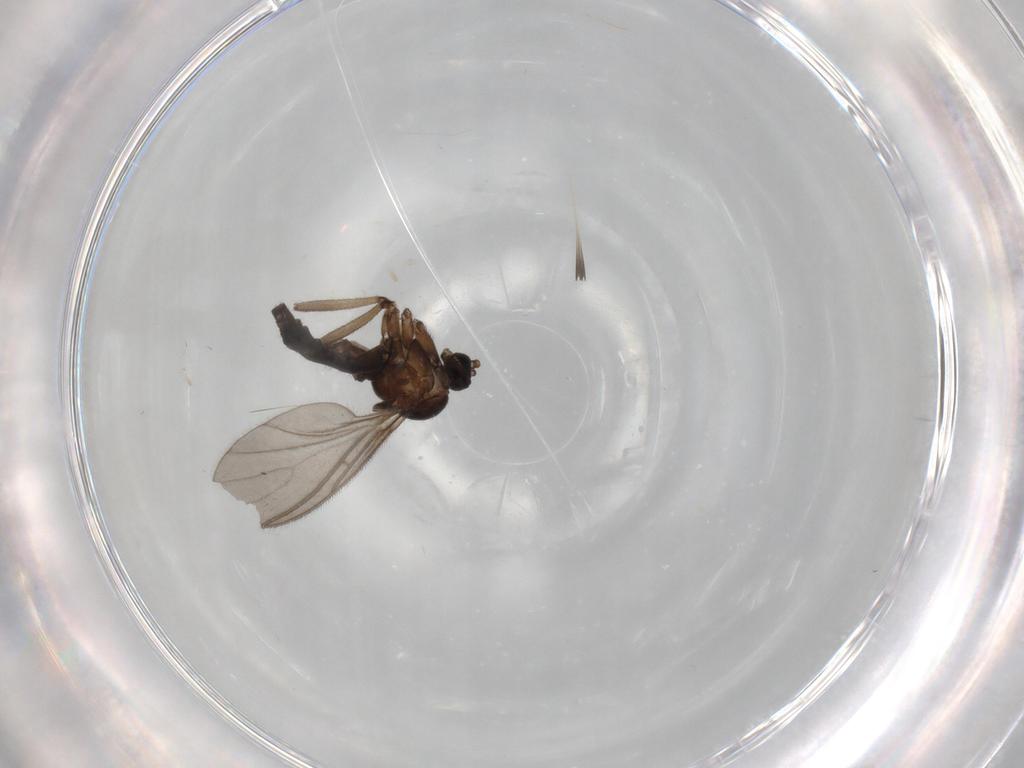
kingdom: Animalia
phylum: Arthropoda
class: Insecta
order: Diptera
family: Sciaridae
